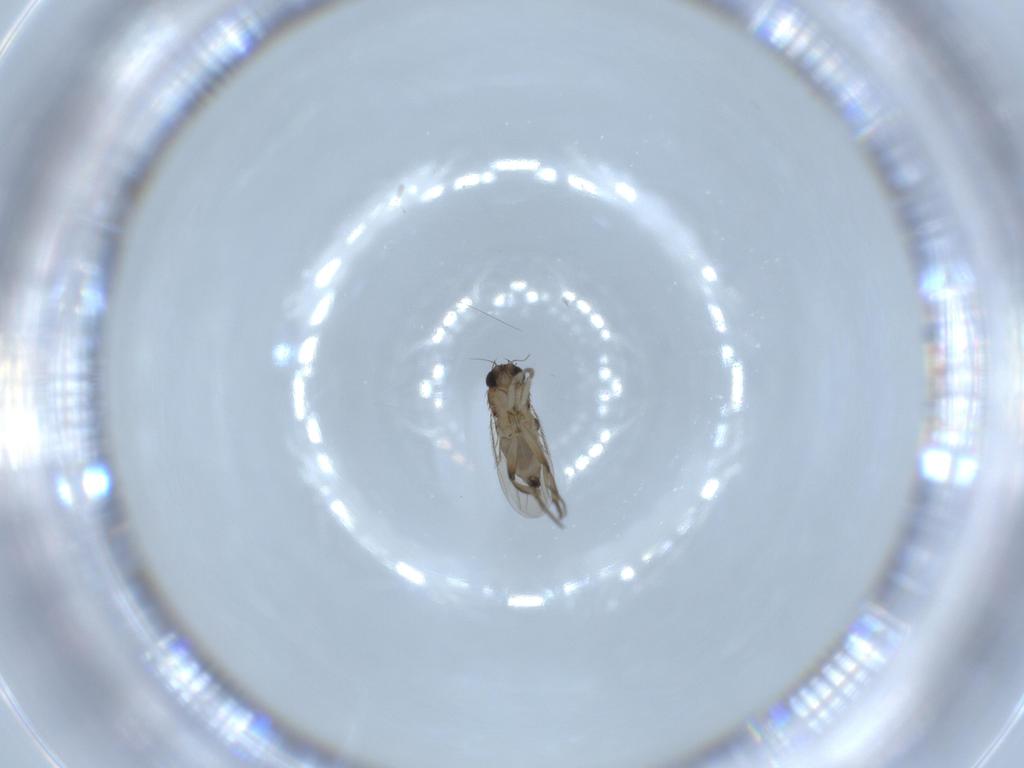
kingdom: Animalia
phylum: Arthropoda
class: Insecta
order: Diptera
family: Phoridae
